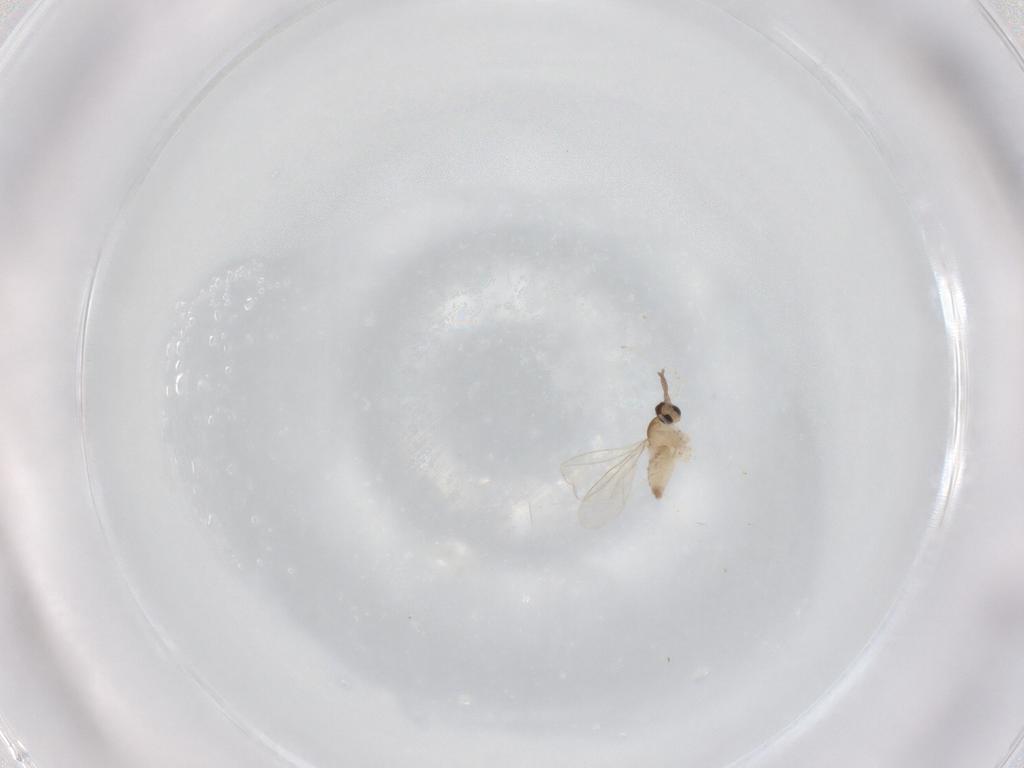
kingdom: Animalia
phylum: Arthropoda
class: Insecta
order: Diptera
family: Cecidomyiidae
